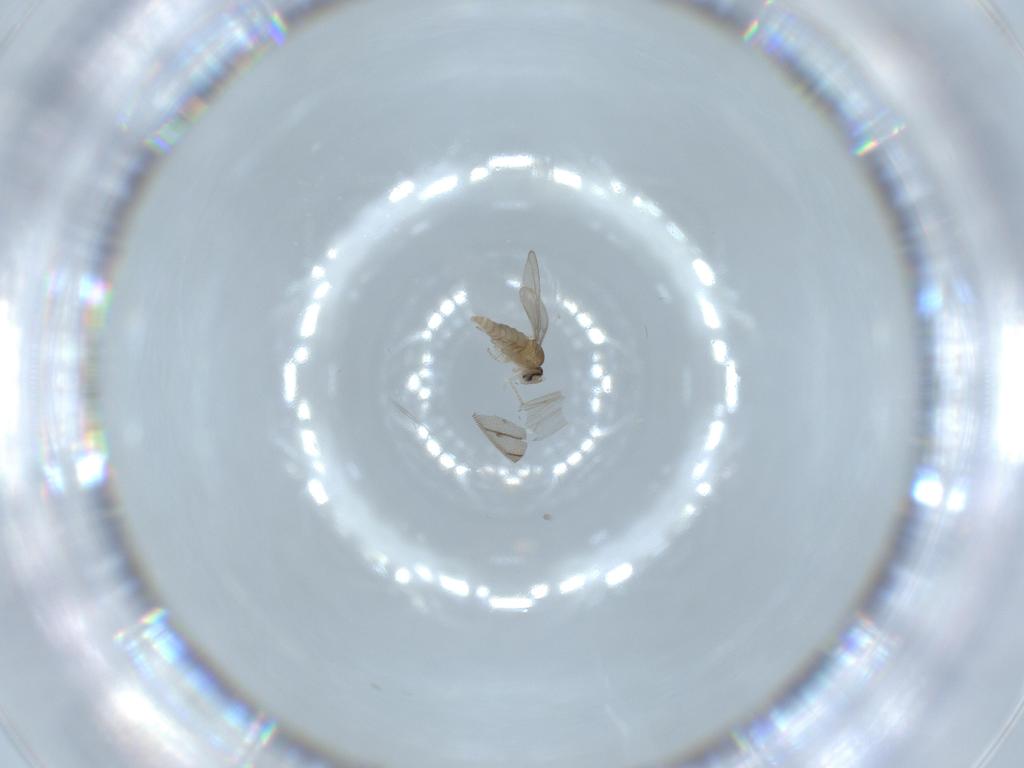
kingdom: Animalia
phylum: Arthropoda
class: Insecta
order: Diptera
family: Cecidomyiidae
